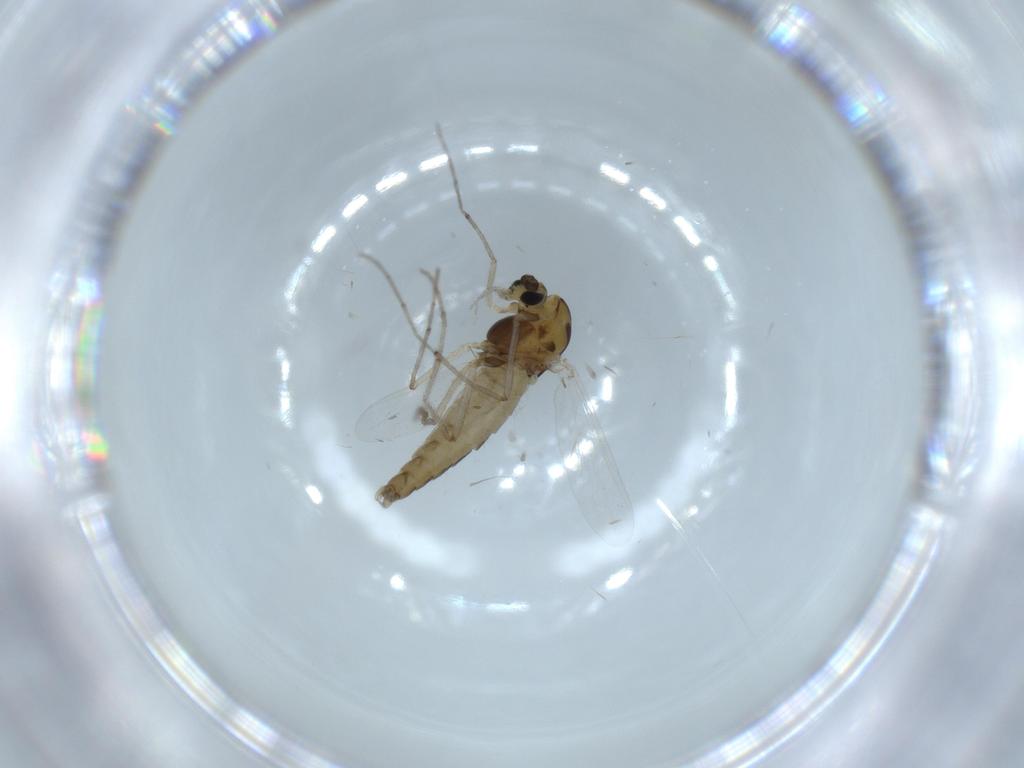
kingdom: Animalia
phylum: Arthropoda
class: Insecta
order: Diptera
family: Chironomidae
